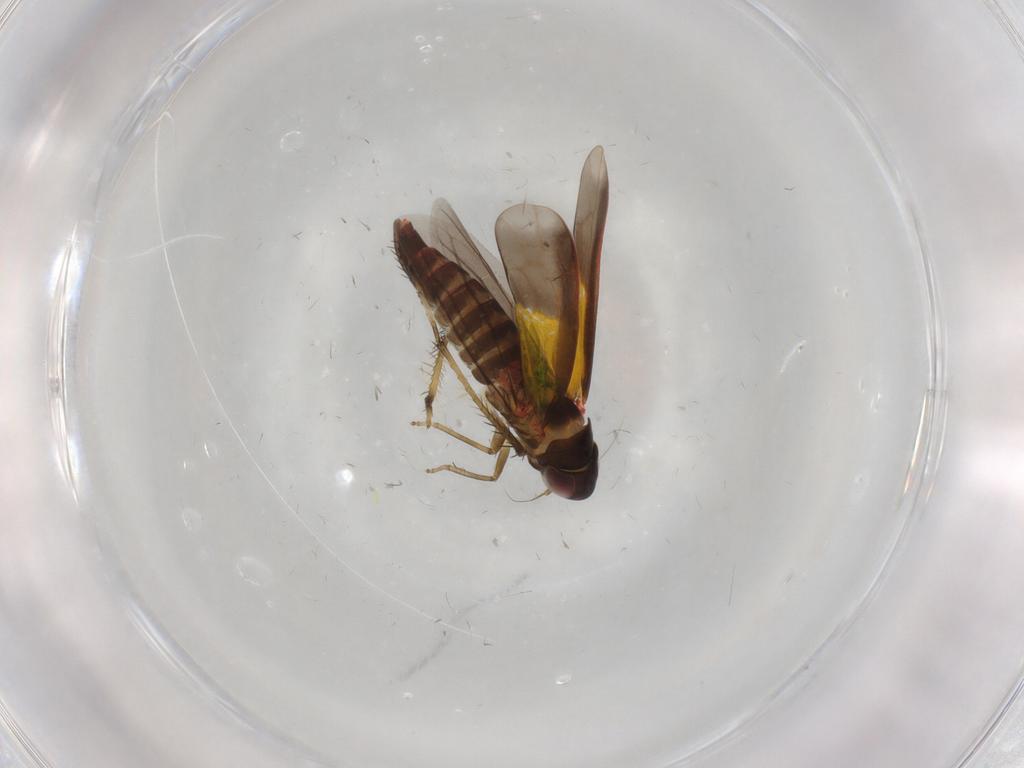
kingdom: Animalia
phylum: Arthropoda
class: Insecta
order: Hemiptera
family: Cicadellidae
